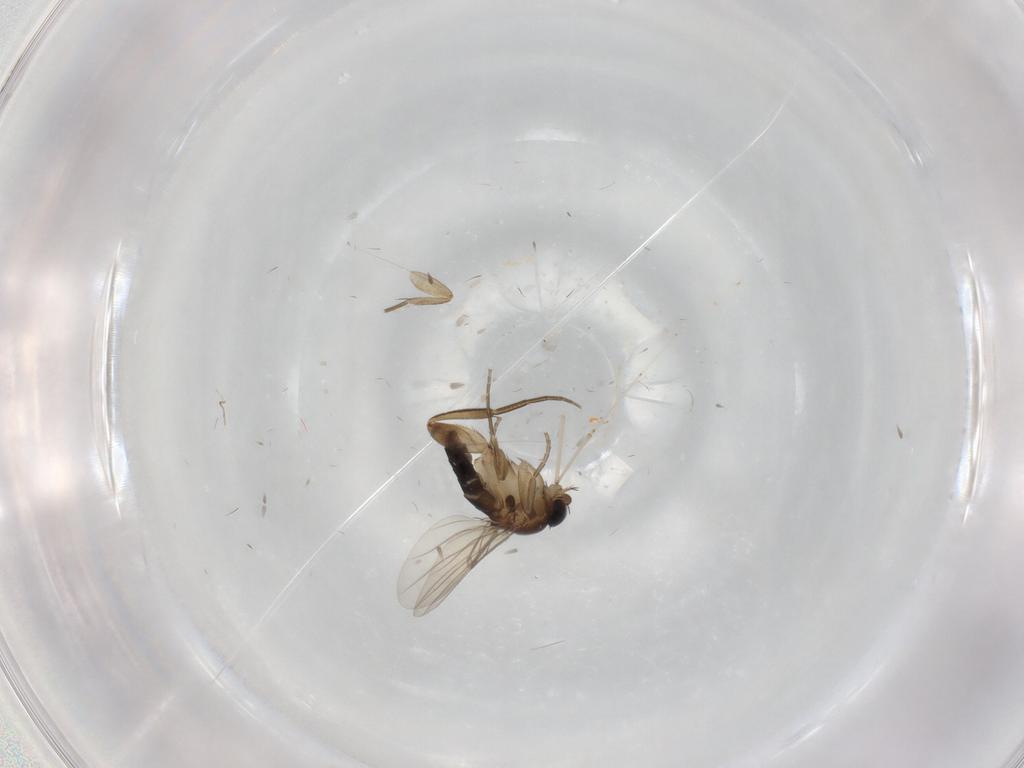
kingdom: Animalia
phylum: Arthropoda
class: Insecta
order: Diptera
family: Phoridae
